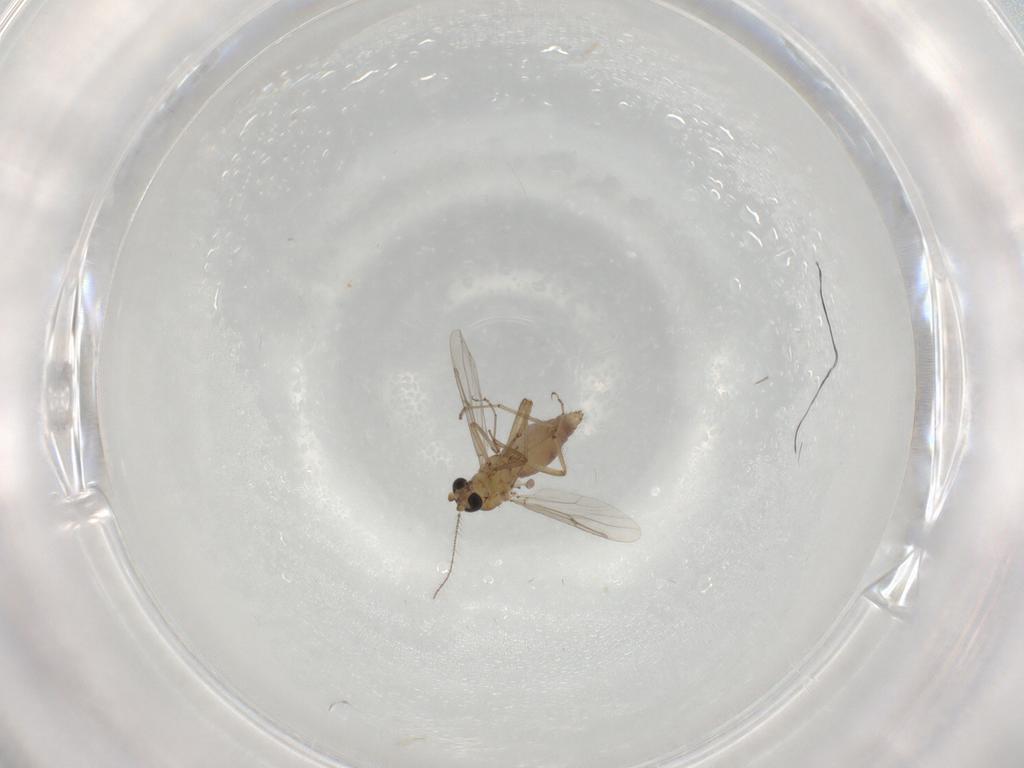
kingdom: Animalia
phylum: Arthropoda
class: Insecta
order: Diptera
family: Ceratopogonidae
